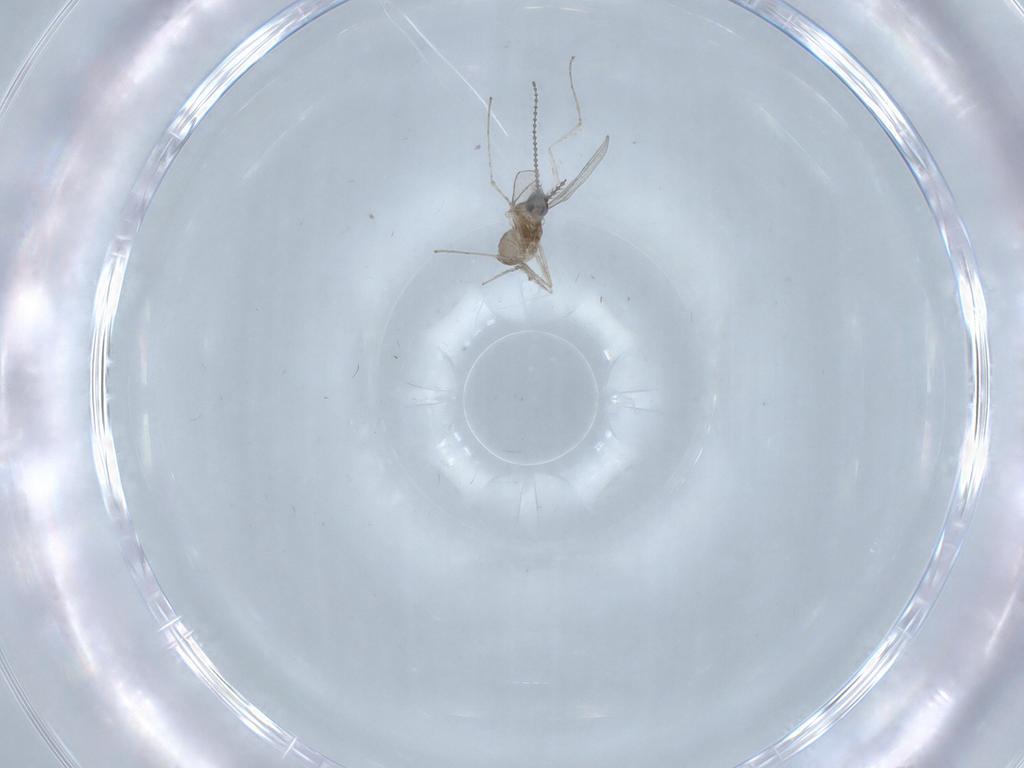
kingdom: Animalia
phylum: Arthropoda
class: Insecta
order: Diptera
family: Cecidomyiidae
